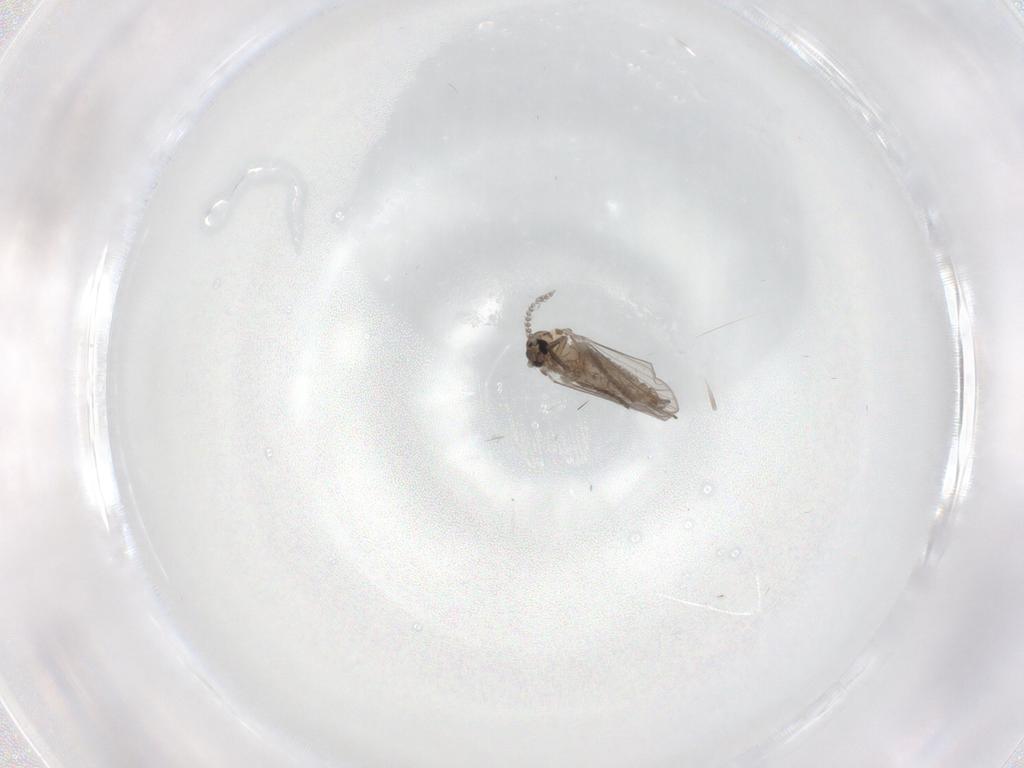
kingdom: Animalia
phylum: Arthropoda
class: Insecta
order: Diptera
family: Psychodidae
